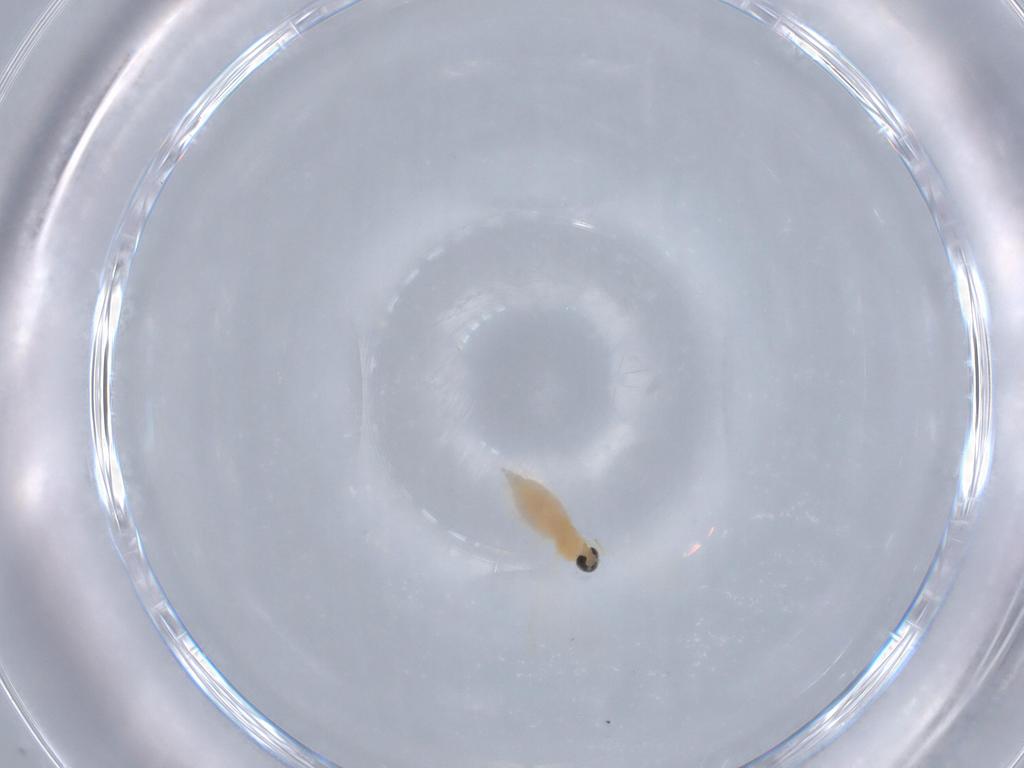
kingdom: Animalia
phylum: Arthropoda
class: Insecta
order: Diptera
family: Cecidomyiidae
